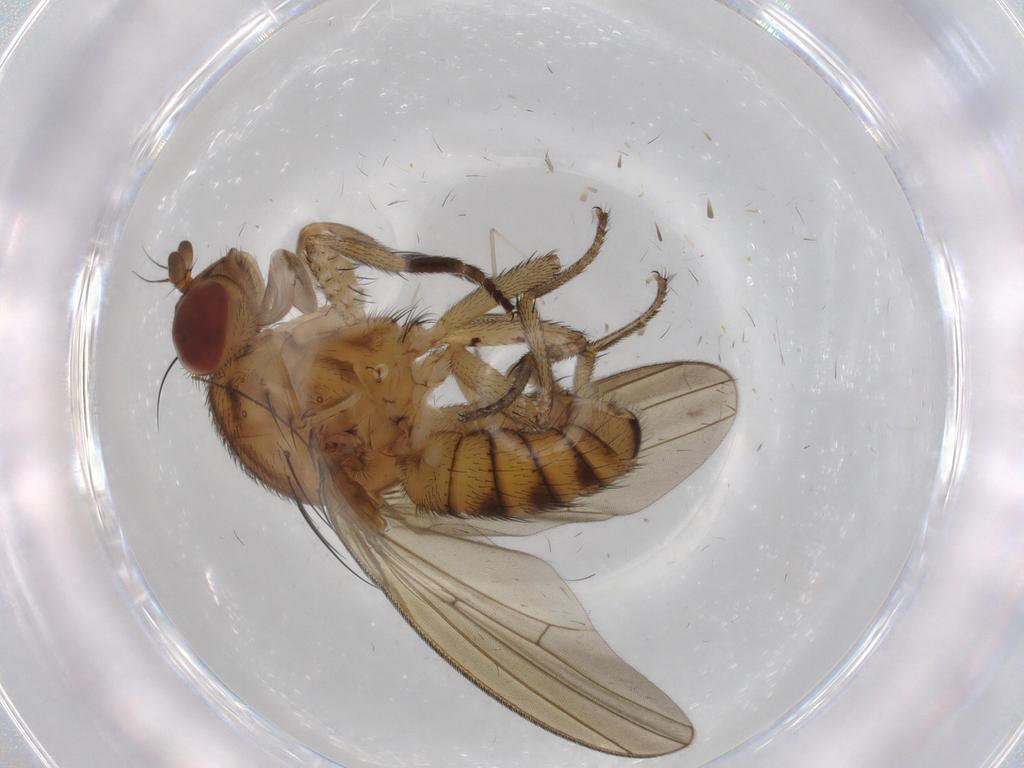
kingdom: Animalia
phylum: Arthropoda
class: Insecta
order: Diptera
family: Ceratopogonidae
